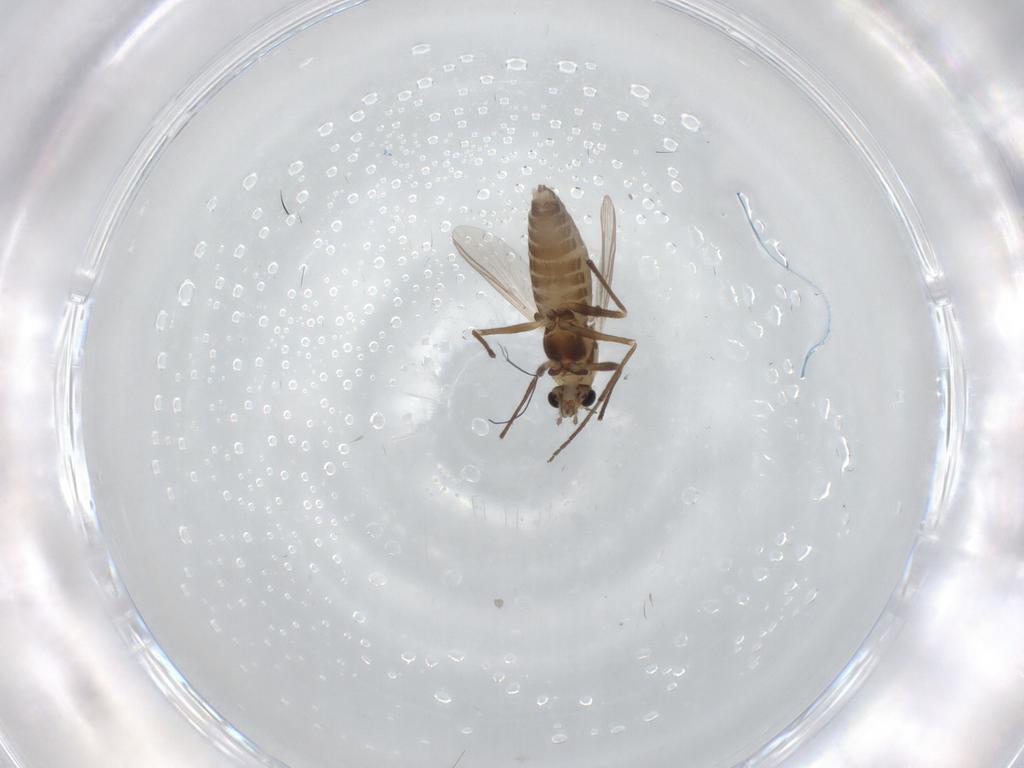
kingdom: Animalia
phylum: Arthropoda
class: Insecta
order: Diptera
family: Chironomidae
